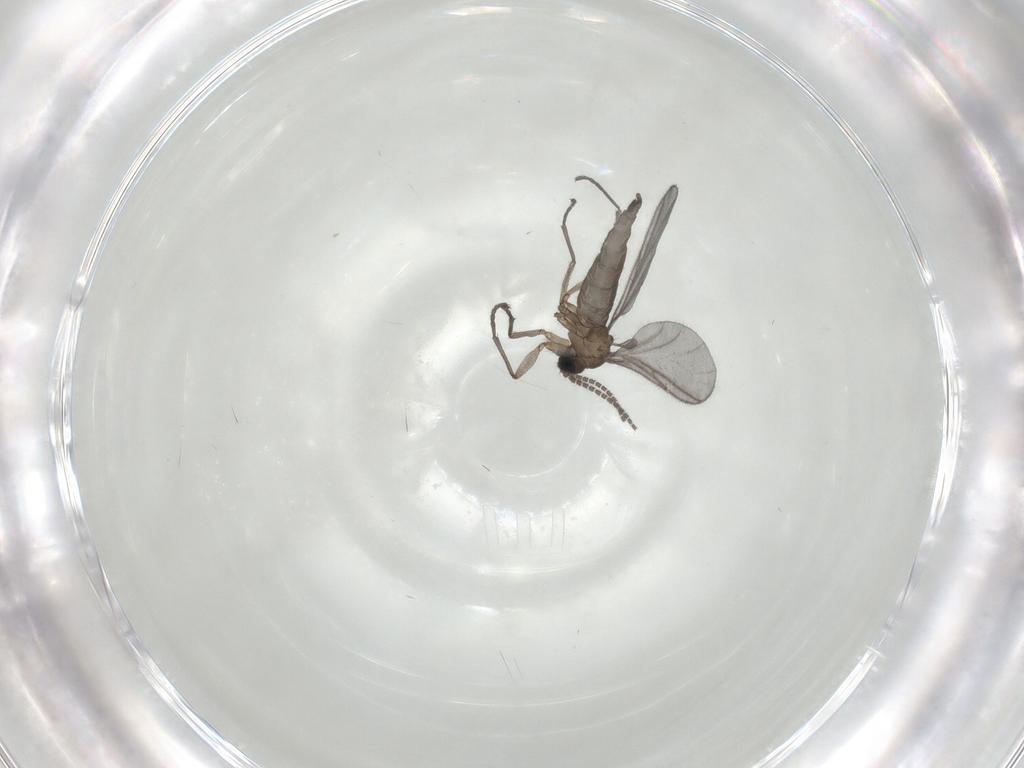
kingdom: Animalia
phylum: Arthropoda
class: Insecta
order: Diptera
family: Sciaridae
